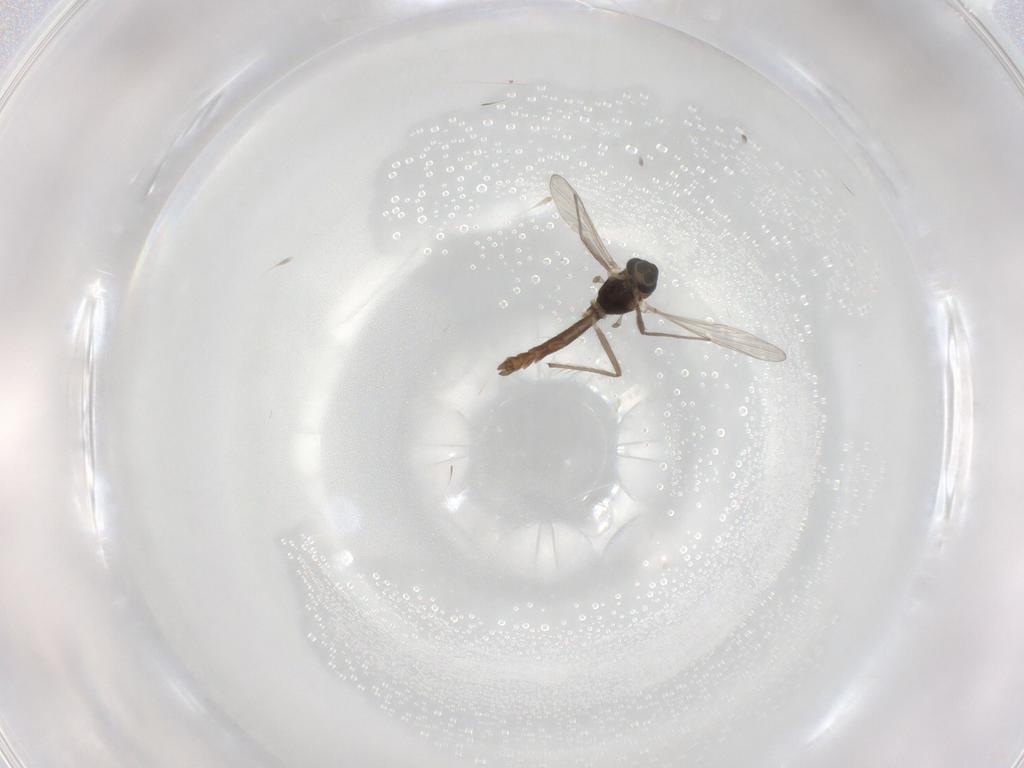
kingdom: Animalia
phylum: Arthropoda
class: Insecta
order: Diptera
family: Chironomidae
